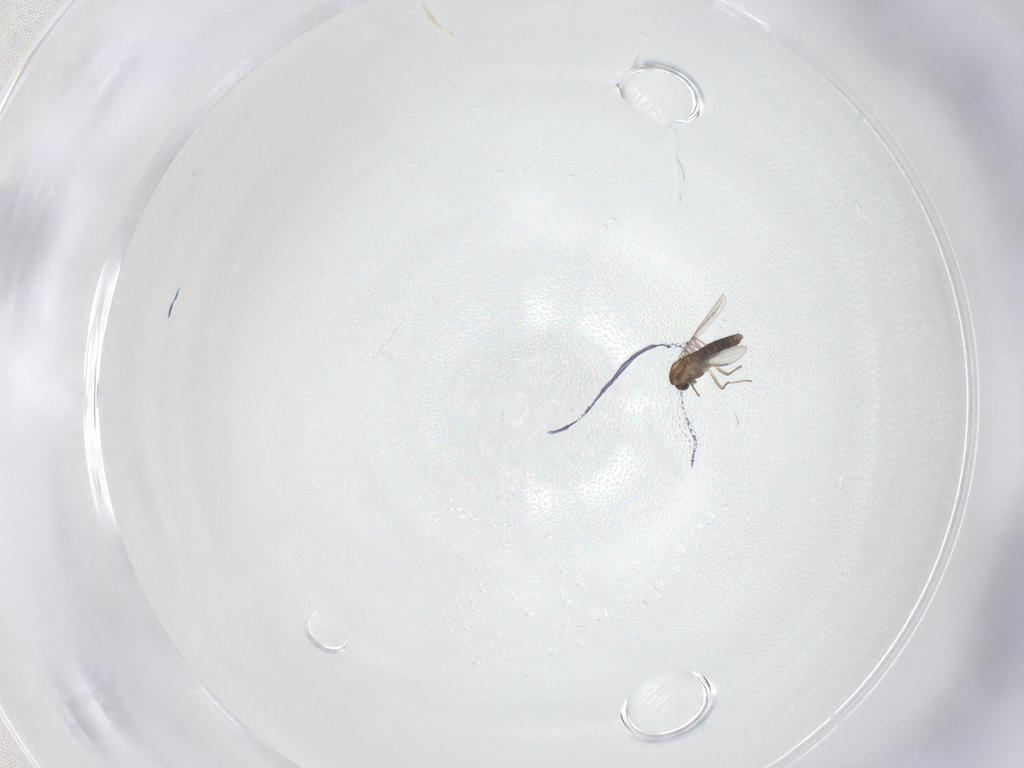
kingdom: Animalia
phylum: Arthropoda
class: Insecta
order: Diptera
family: Chironomidae
